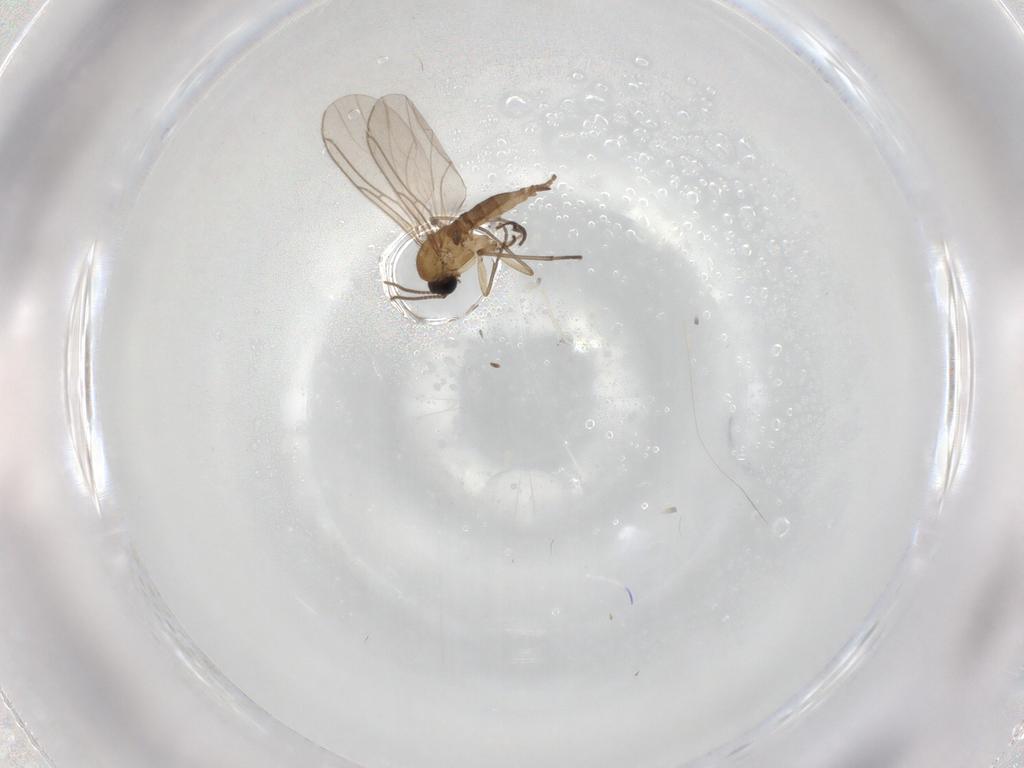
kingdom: Animalia
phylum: Arthropoda
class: Insecta
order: Diptera
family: Sciaridae
